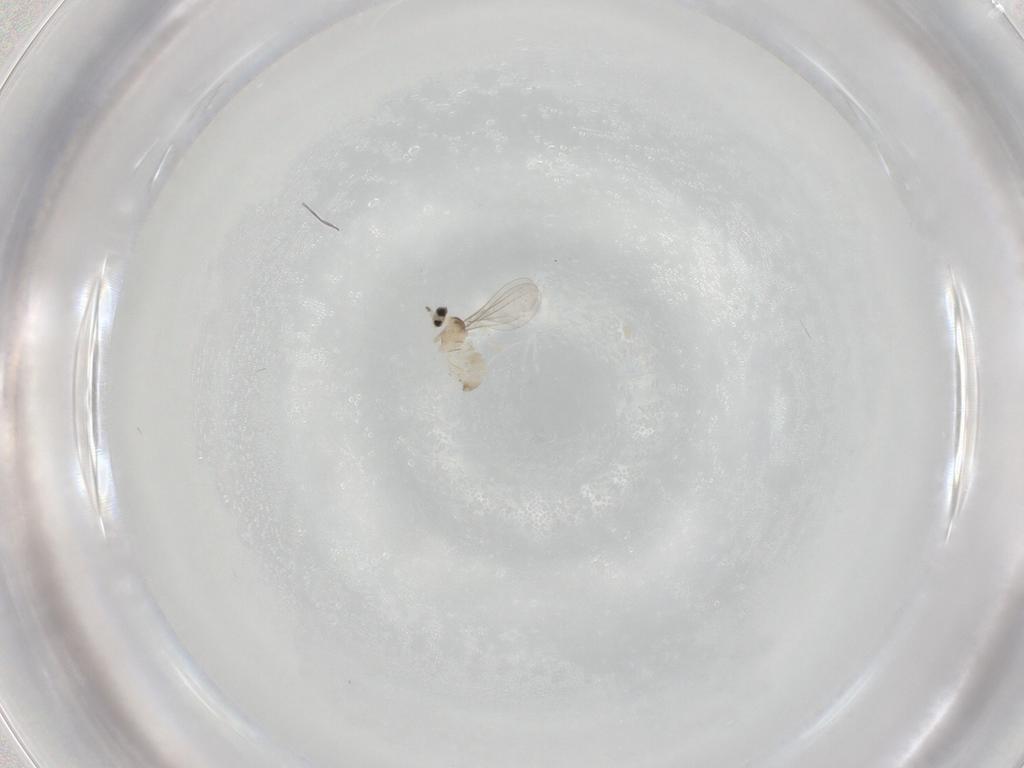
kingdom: Animalia
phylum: Arthropoda
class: Insecta
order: Diptera
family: Cecidomyiidae
